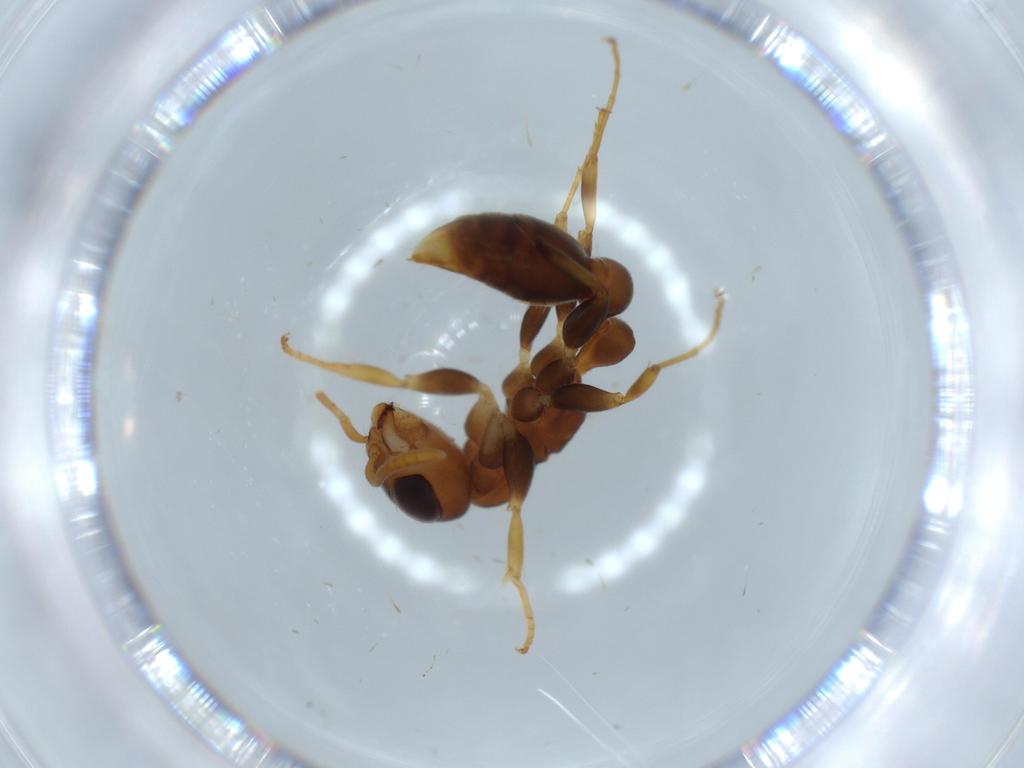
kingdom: Animalia
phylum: Arthropoda
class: Insecta
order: Hymenoptera
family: Formicidae
